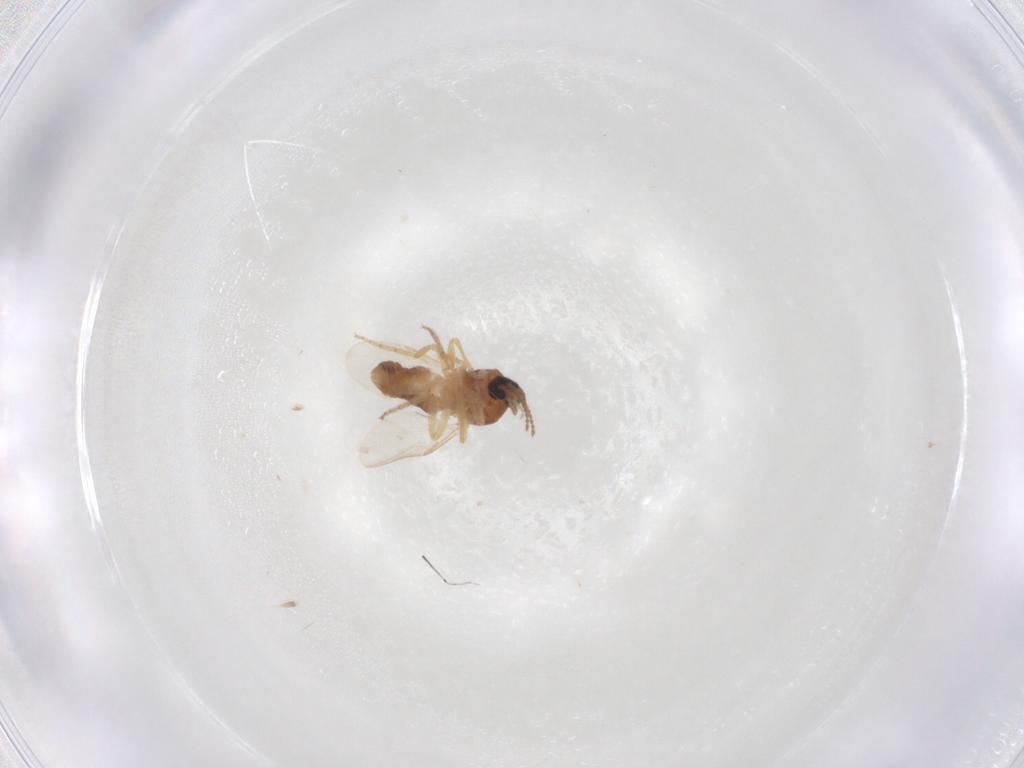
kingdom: Animalia
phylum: Arthropoda
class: Insecta
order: Diptera
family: Ceratopogonidae
